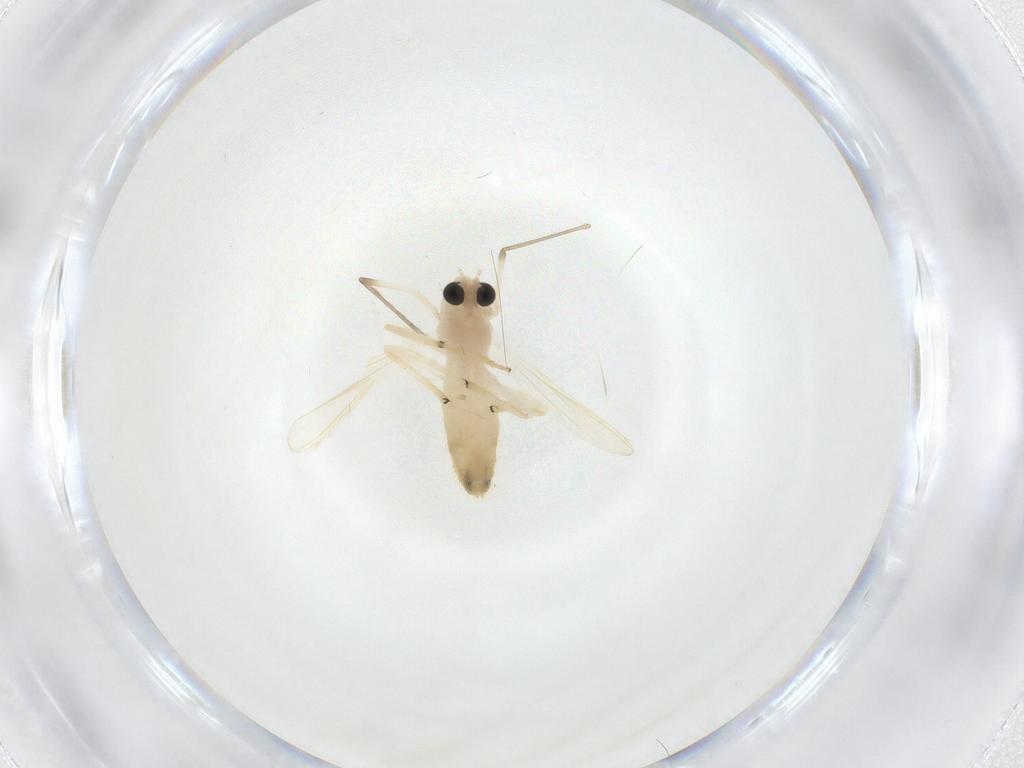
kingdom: Animalia
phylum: Arthropoda
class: Insecta
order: Diptera
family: Chironomidae
